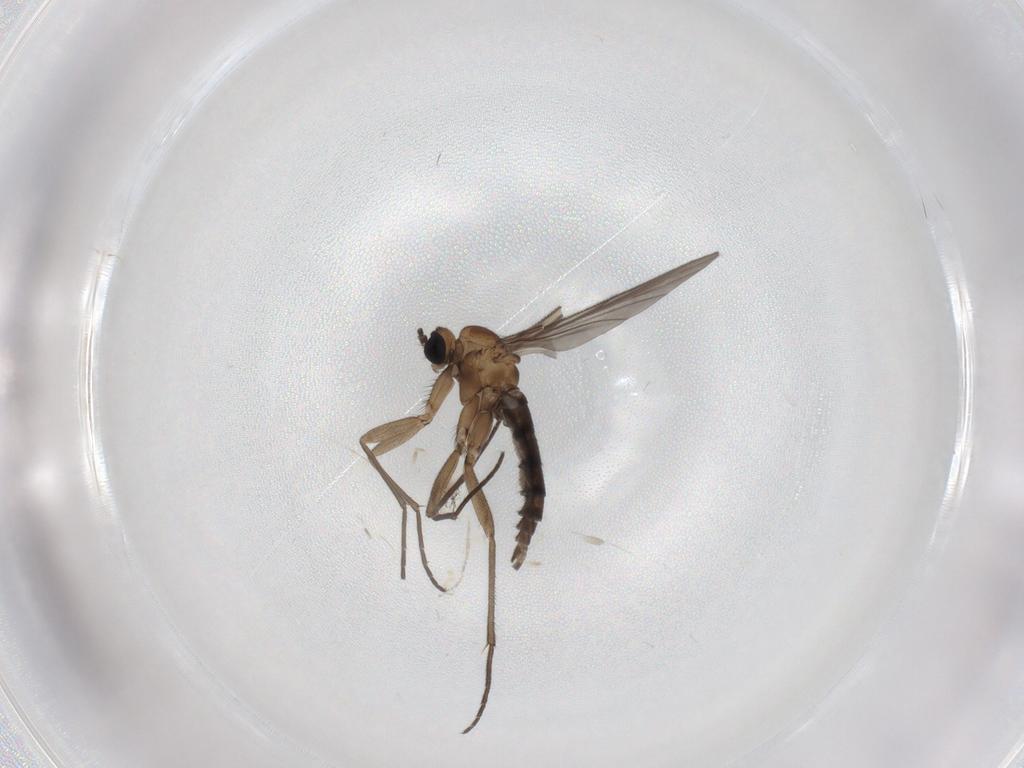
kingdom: Animalia
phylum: Arthropoda
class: Insecta
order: Diptera
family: Sciaridae
